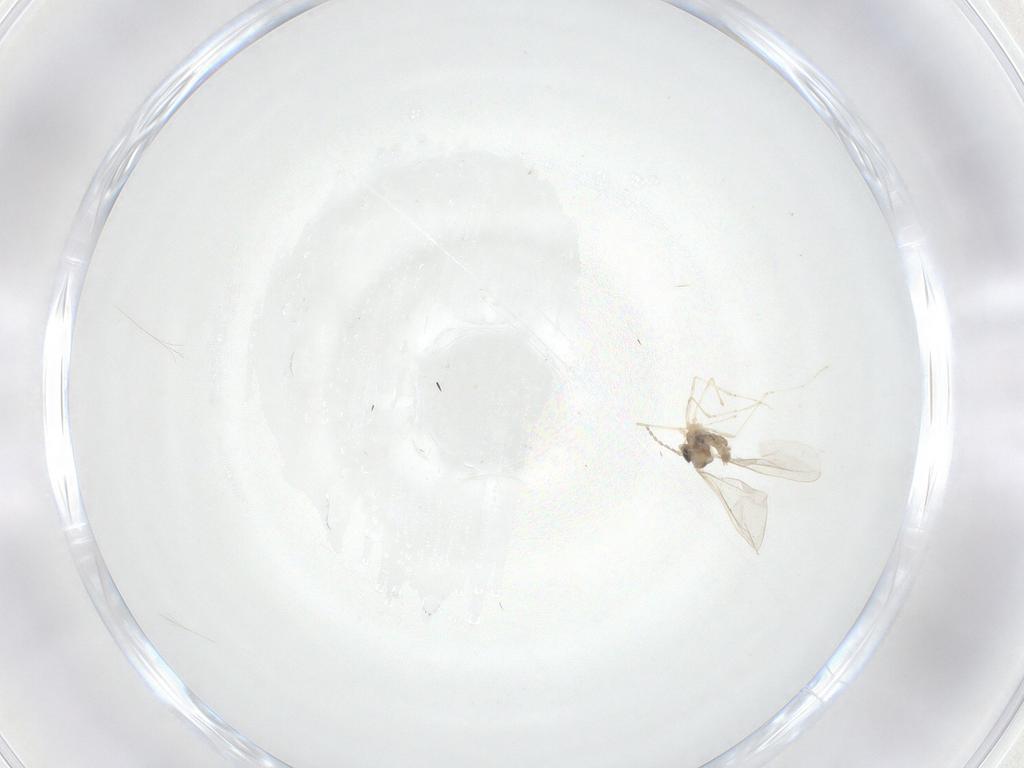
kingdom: Animalia
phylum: Arthropoda
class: Insecta
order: Diptera
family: Cecidomyiidae
